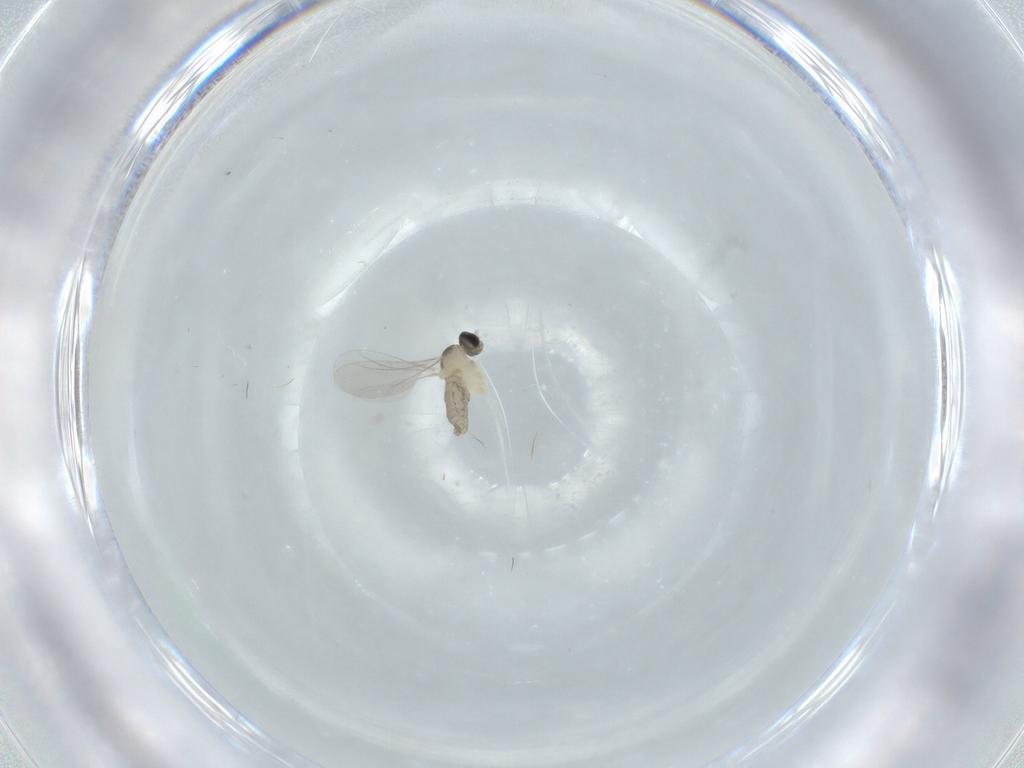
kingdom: Animalia
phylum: Arthropoda
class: Insecta
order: Diptera
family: Cecidomyiidae
